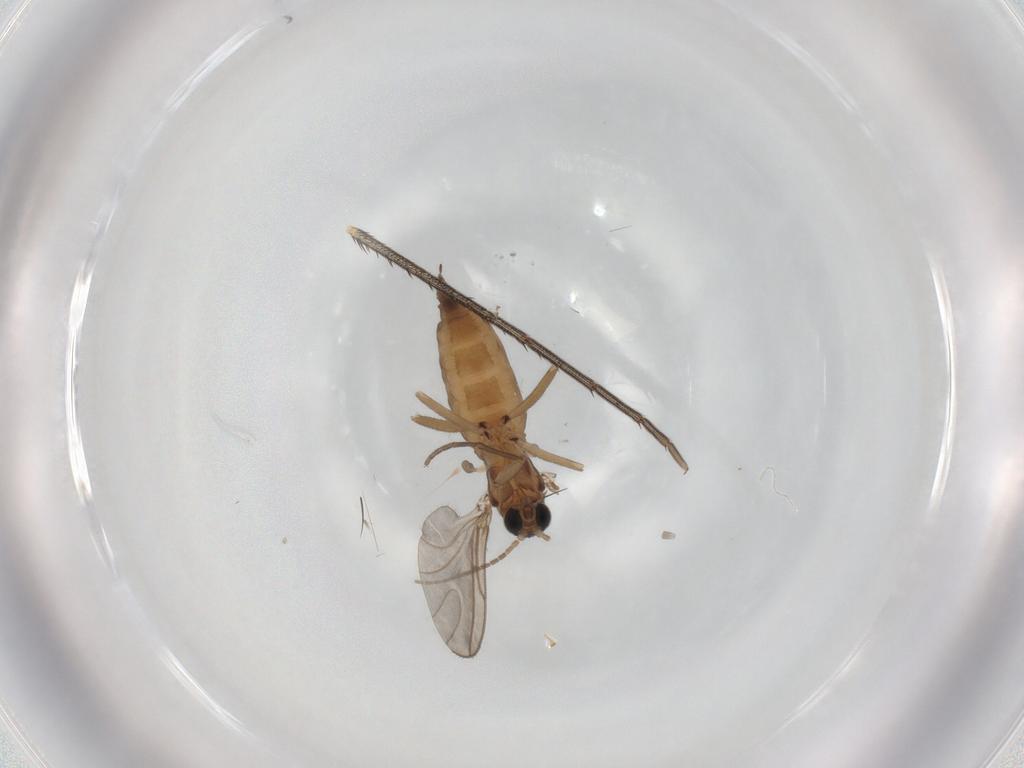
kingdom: Animalia
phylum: Arthropoda
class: Insecta
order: Diptera
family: Sciaridae
